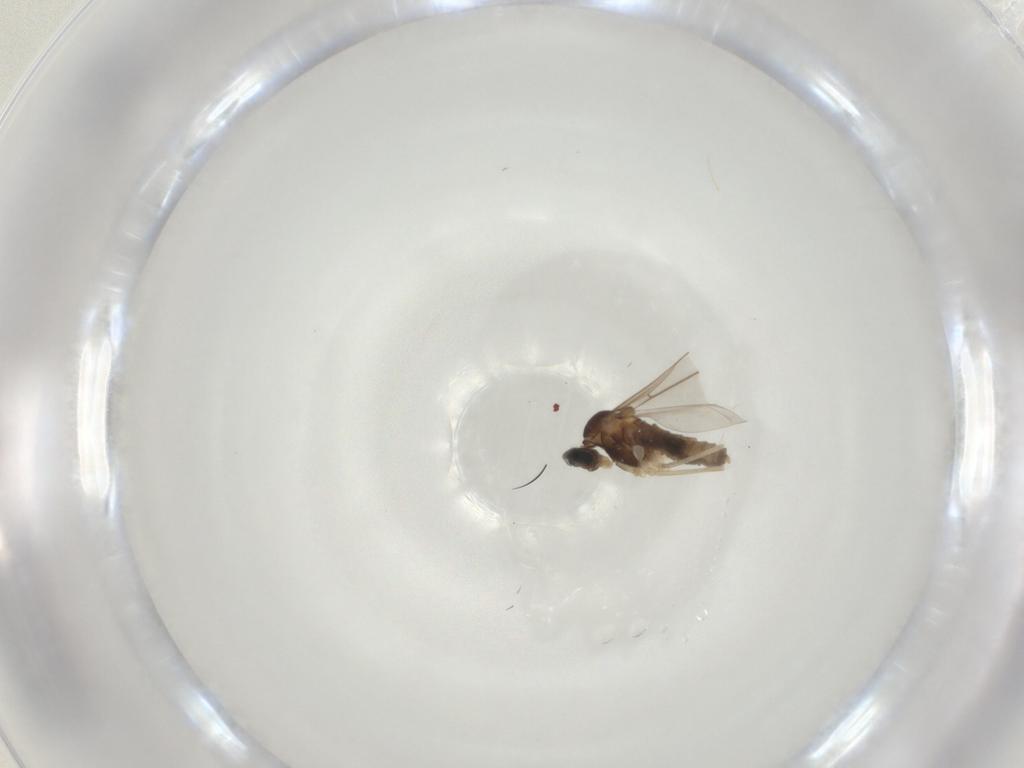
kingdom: Animalia
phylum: Arthropoda
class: Insecta
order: Diptera
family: Cecidomyiidae
